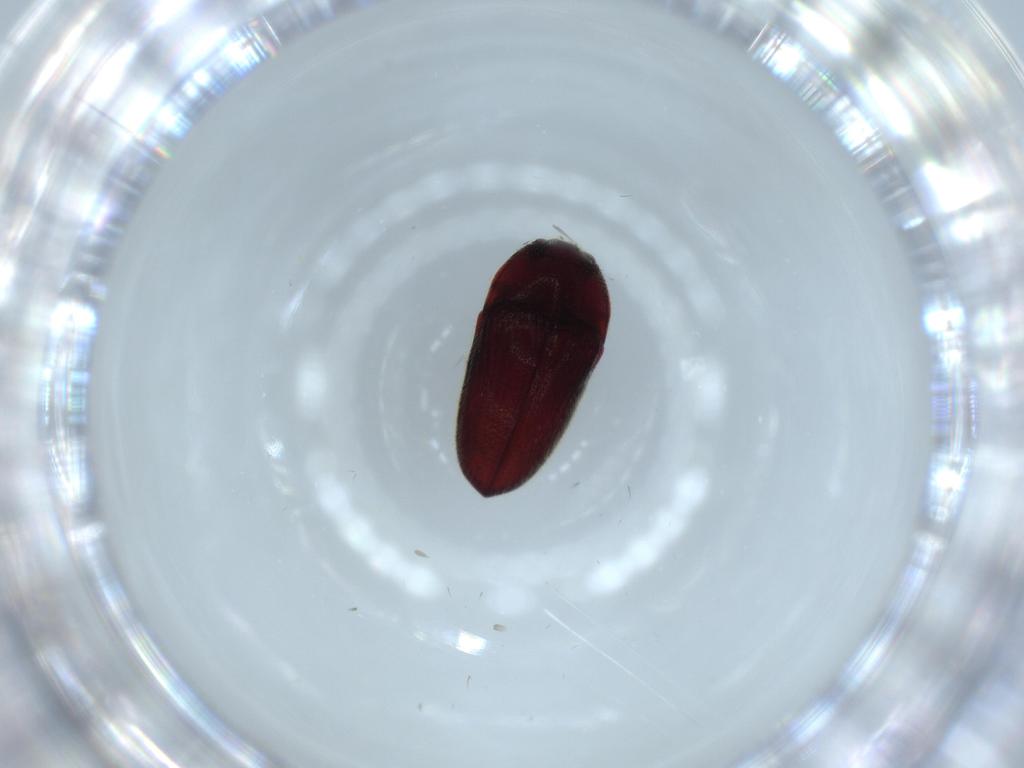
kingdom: Animalia
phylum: Arthropoda
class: Insecta
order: Coleoptera
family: Throscidae
